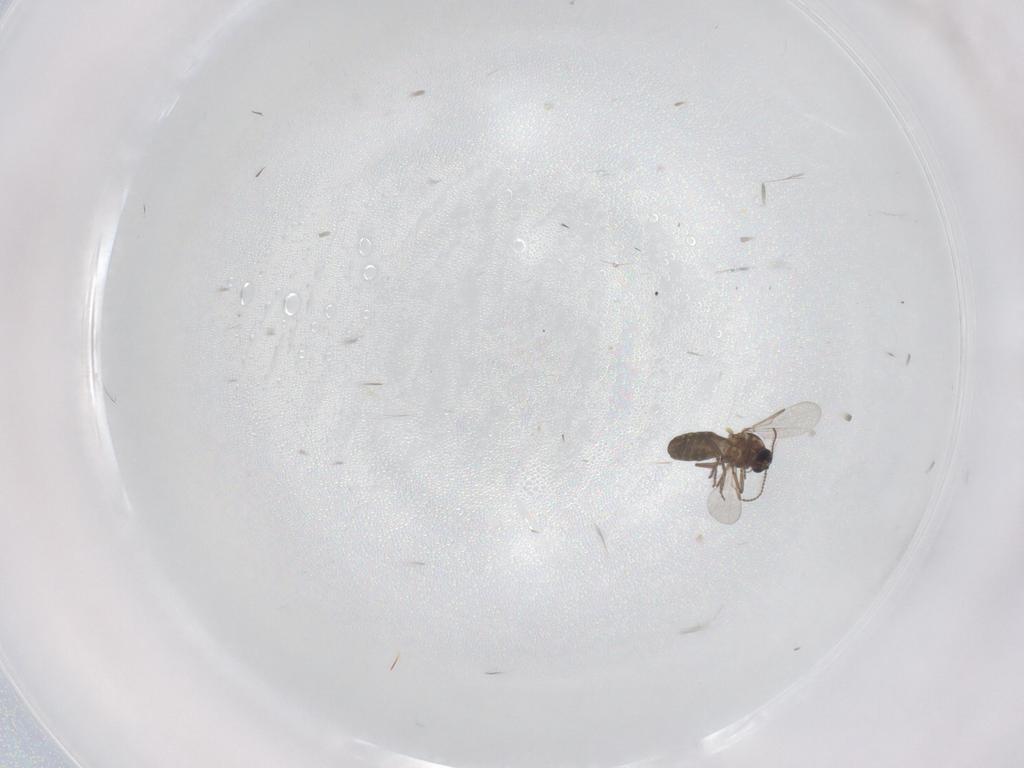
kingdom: Animalia
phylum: Arthropoda
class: Insecta
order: Diptera
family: Ceratopogonidae
